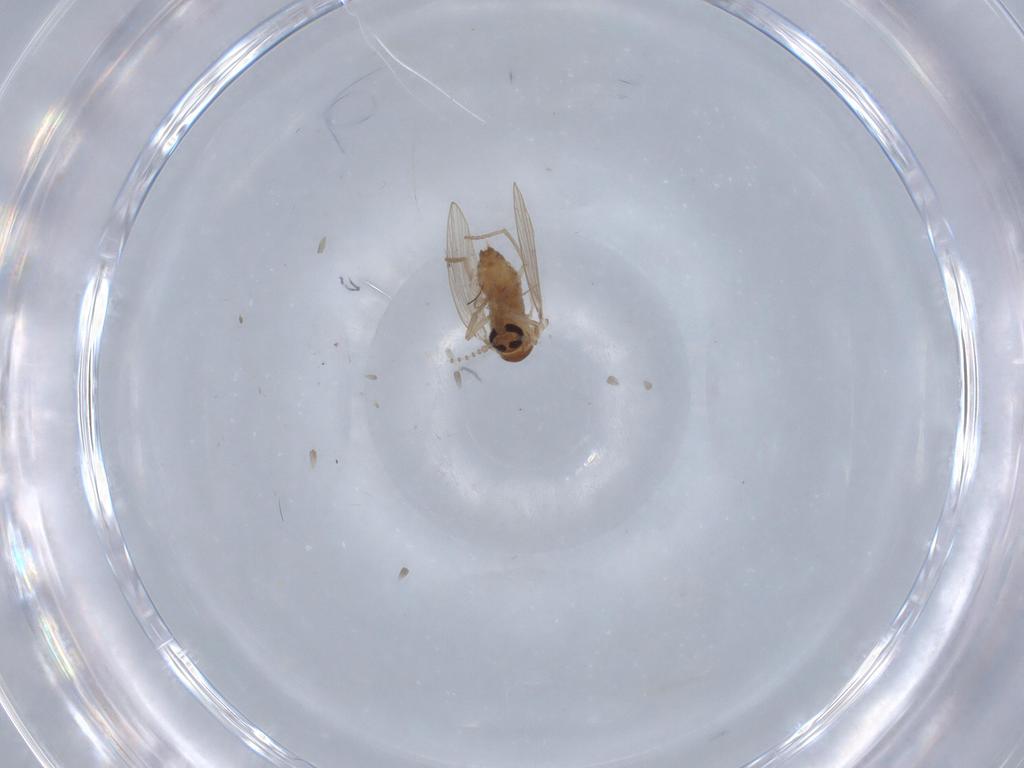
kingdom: Animalia
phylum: Arthropoda
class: Insecta
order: Diptera
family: Psychodidae
